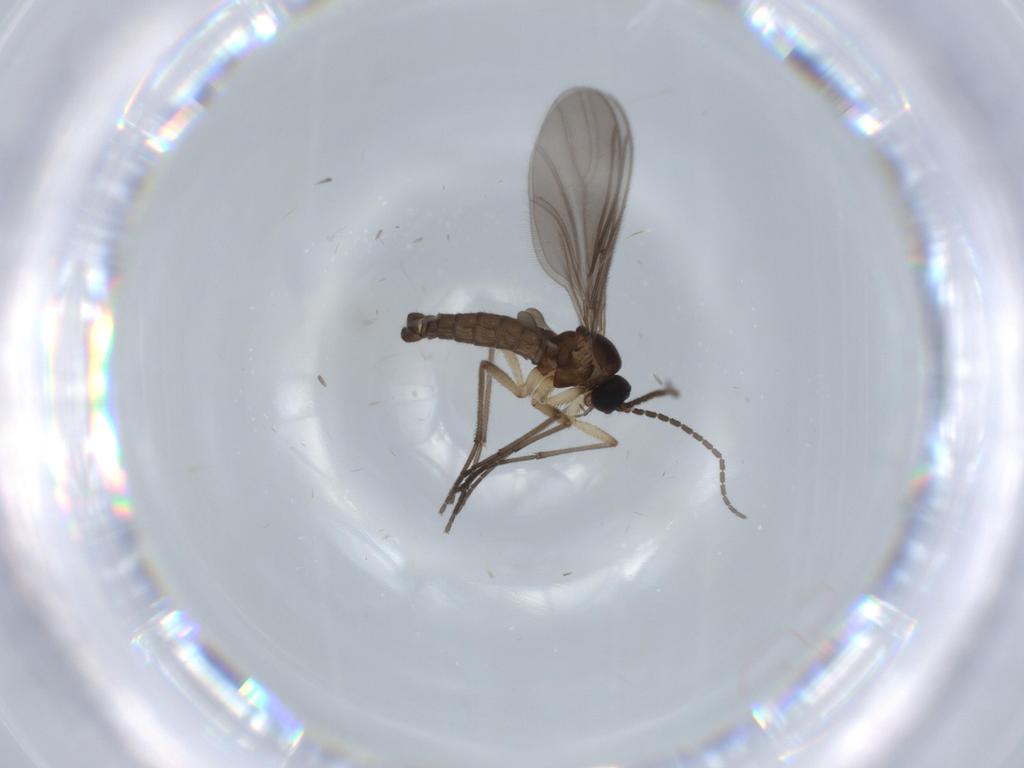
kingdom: Animalia
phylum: Arthropoda
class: Insecta
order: Diptera
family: Sciaridae
